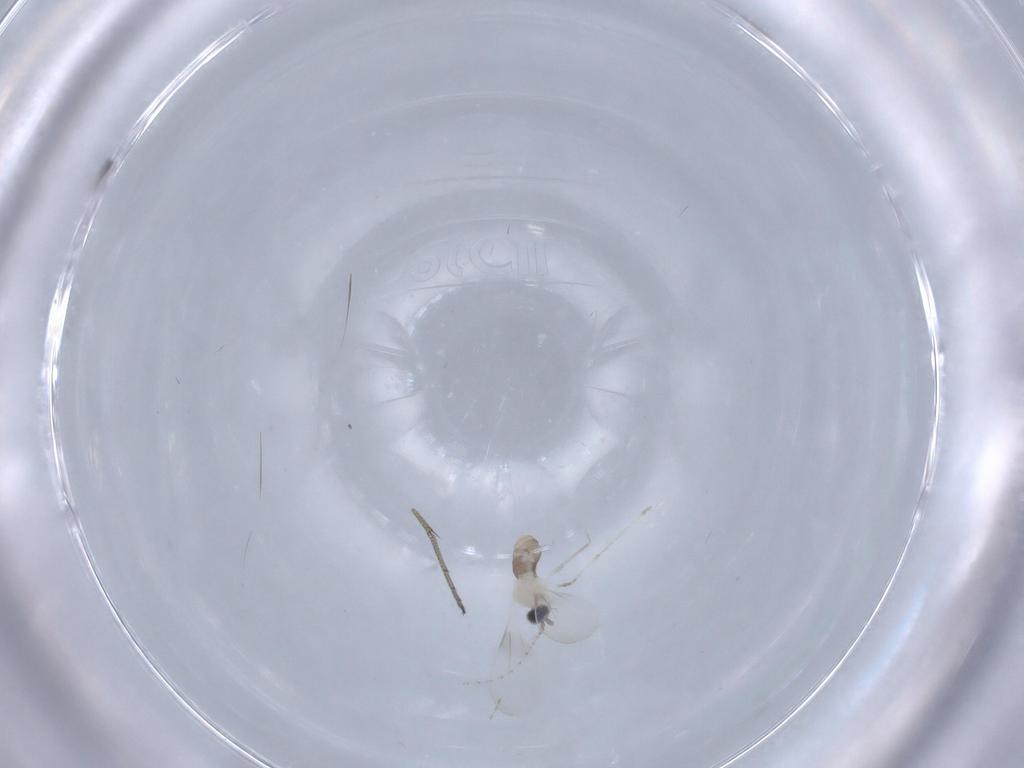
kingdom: Animalia
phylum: Arthropoda
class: Insecta
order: Diptera
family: Cecidomyiidae
